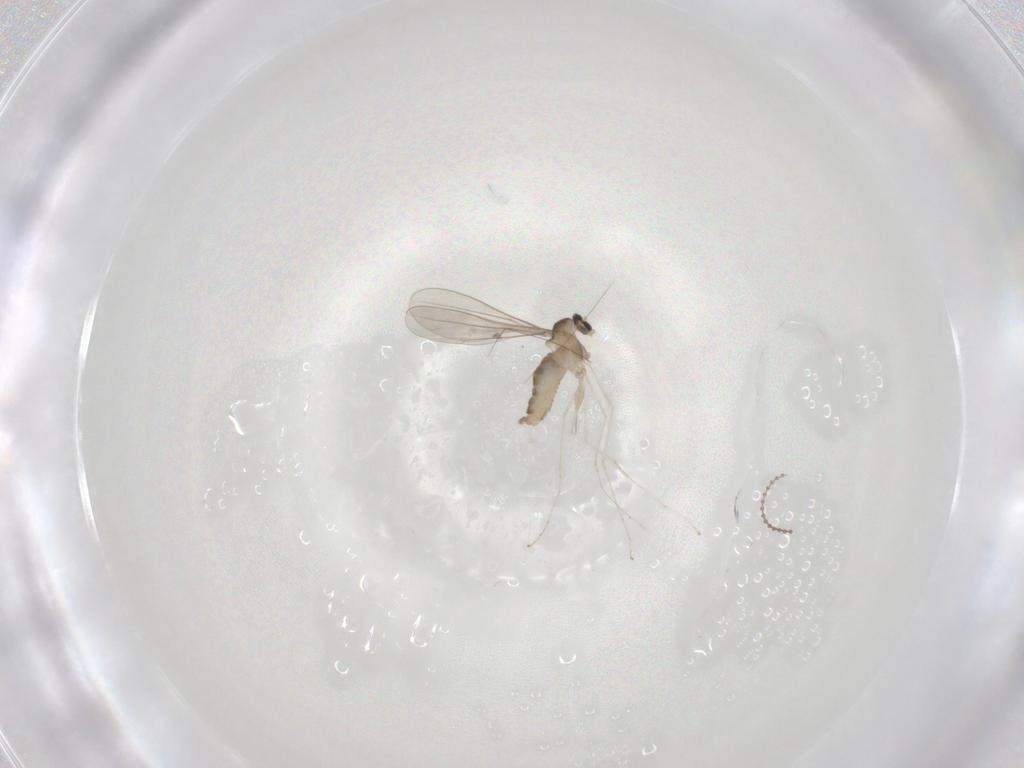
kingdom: Animalia
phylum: Arthropoda
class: Insecta
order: Diptera
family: Cecidomyiidae
